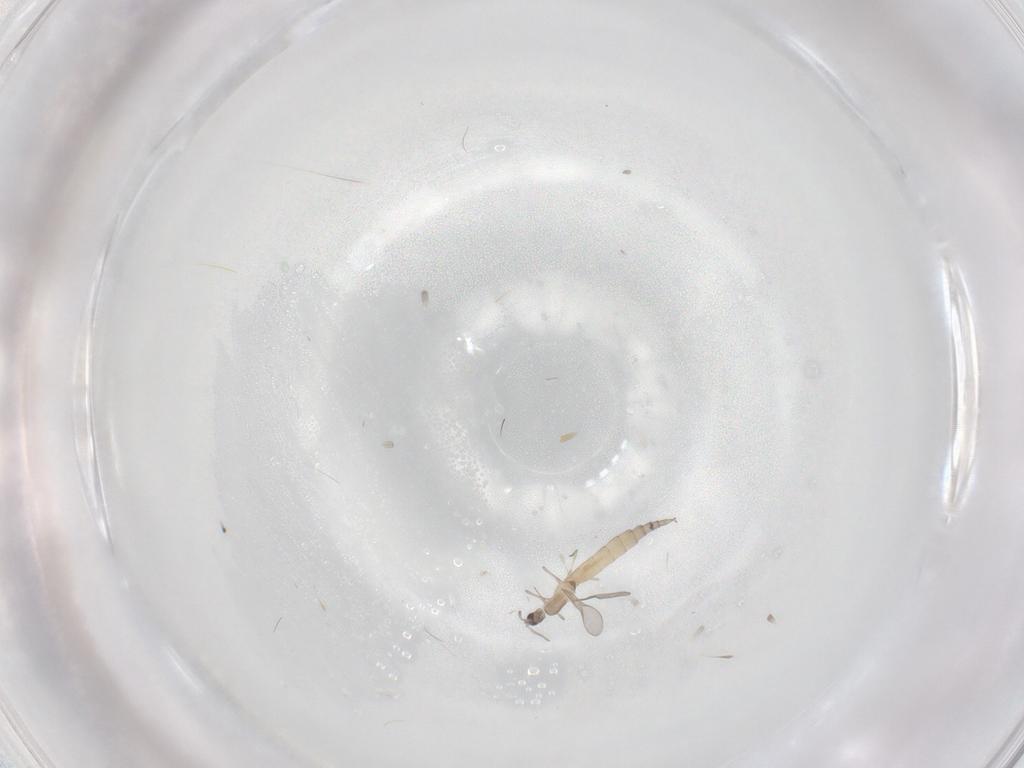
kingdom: Animalia
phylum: Arthropoda
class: Insecta
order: Diptera
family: Cecidomyiidae
